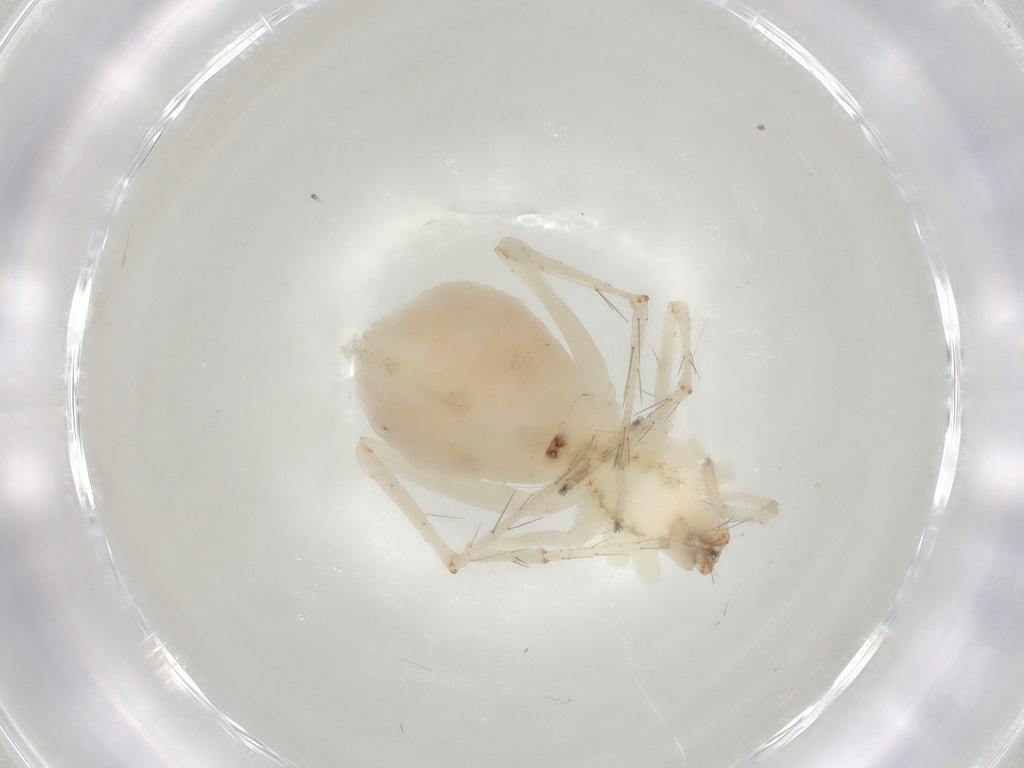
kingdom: Animalia
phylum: Arthropoda
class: Arachnida
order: Araneae
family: Anyphaenidae
